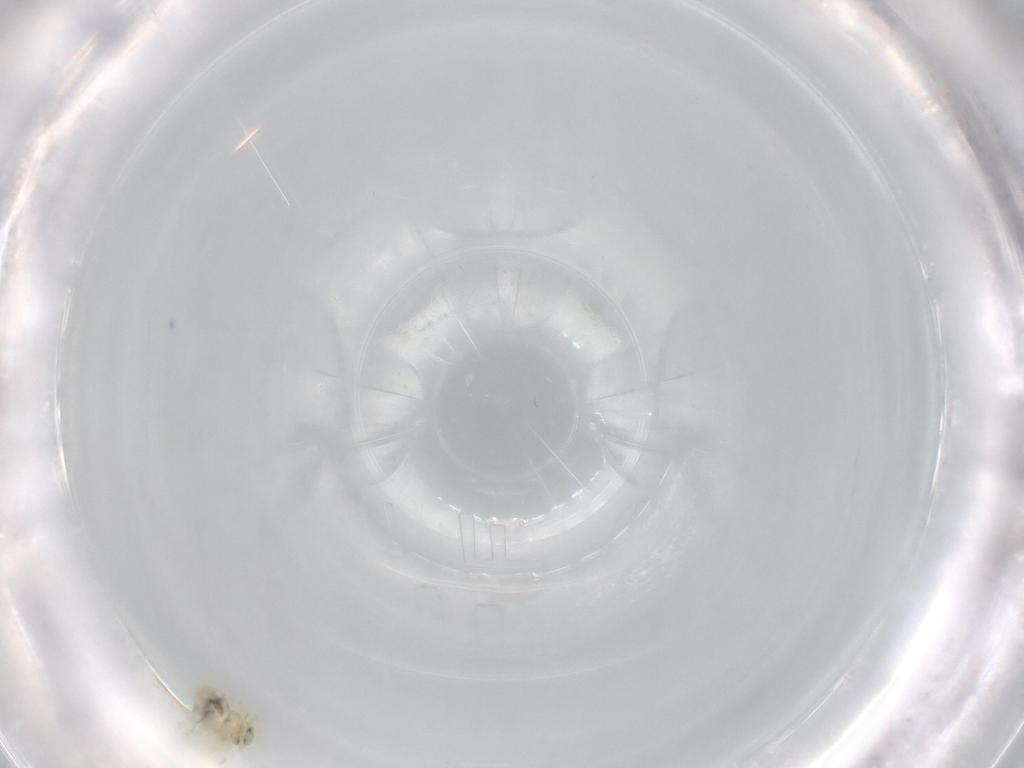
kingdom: Animalia
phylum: Arthropoda
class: Insecta
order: Hemiptera
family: Aleyrodidae
